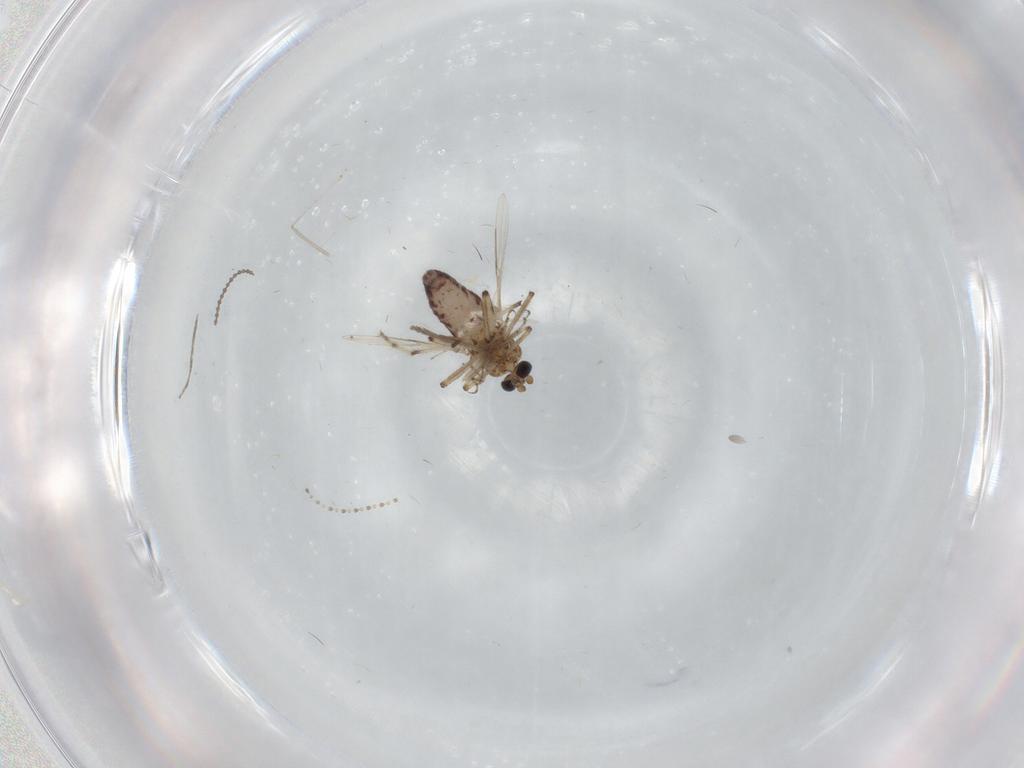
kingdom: Animalia
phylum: Arthropoda
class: Insecta
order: Diptera
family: Ceratopogonidae
